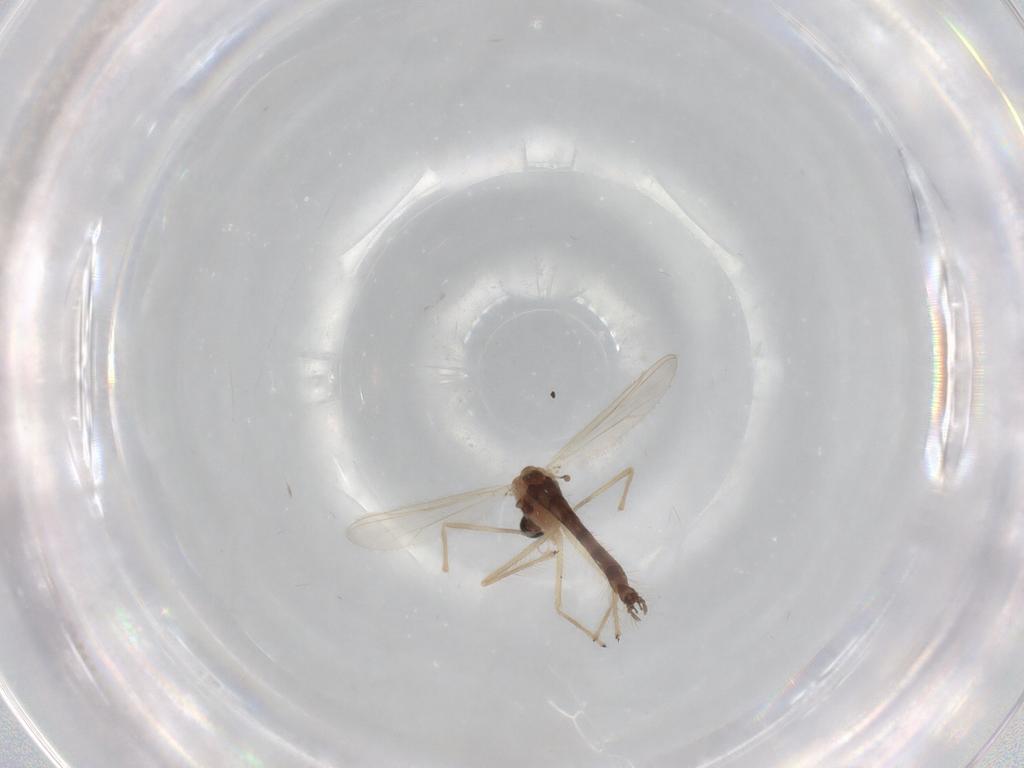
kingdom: Animalia
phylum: Arthropoda
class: Insecta
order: Diptera
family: Chironomidae
